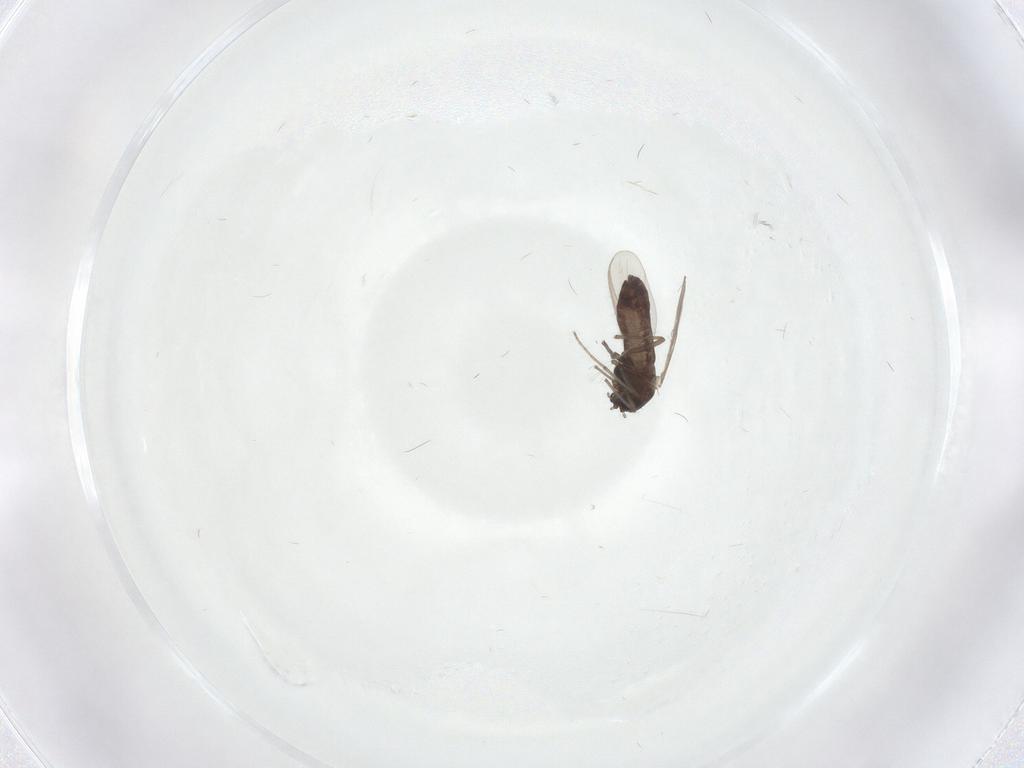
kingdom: Animalia
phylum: Arthropoda
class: Insecta
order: Diptera
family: Chironomidae
